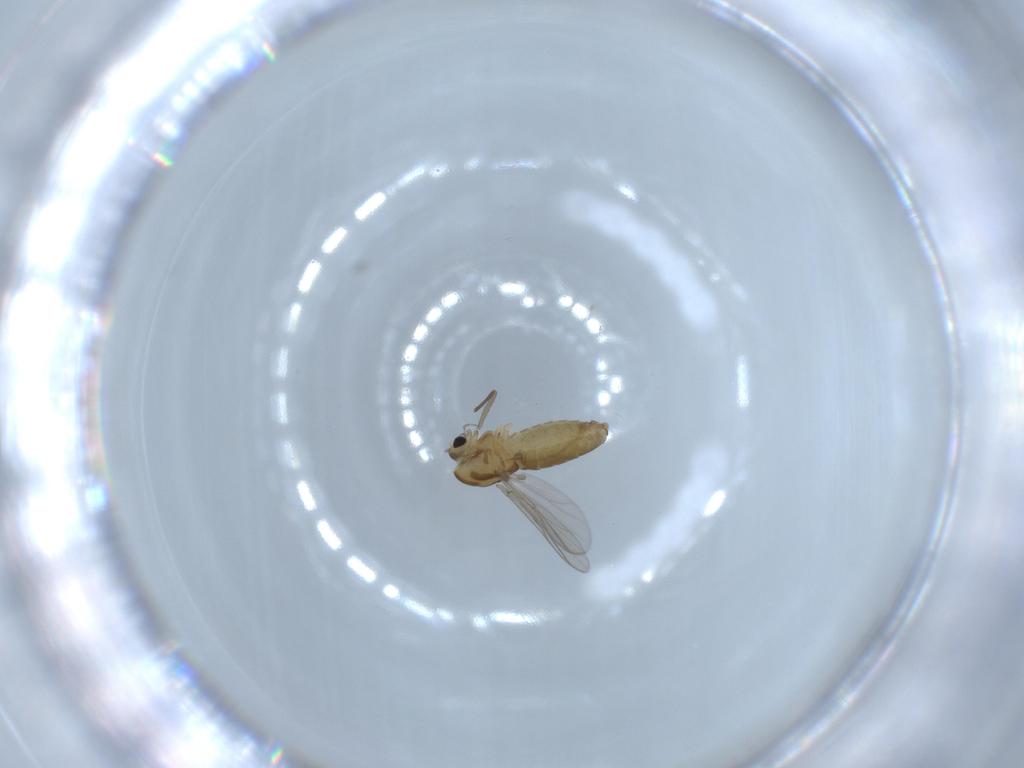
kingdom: Animalia
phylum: Arthropoda
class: Insecta
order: Diptera
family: Chironomidae
